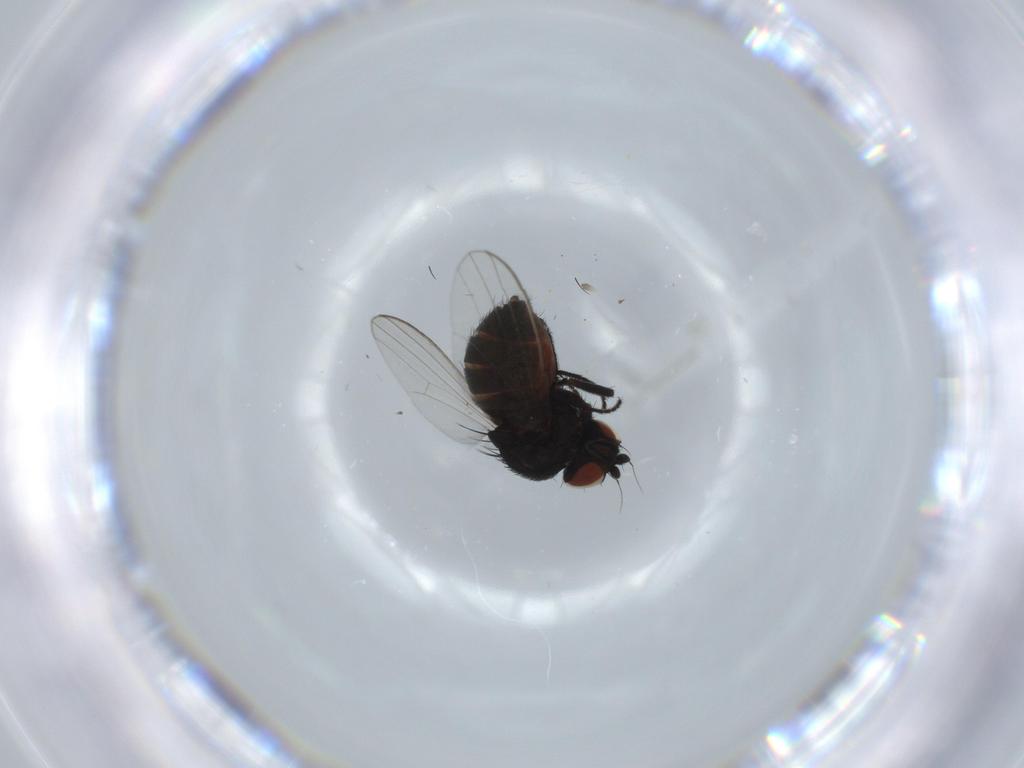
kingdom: Animalia
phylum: Arthropoda
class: Insecta
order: Diptera
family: Milichiidae
